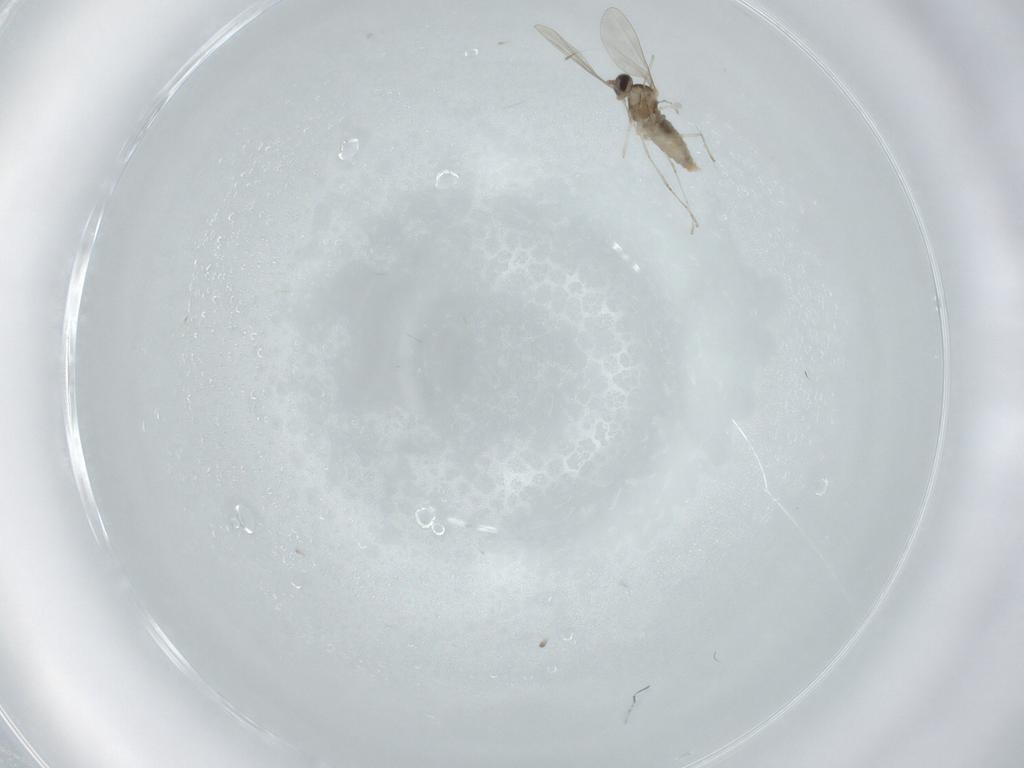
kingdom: Animalia
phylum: Arthropoda
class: Insecta
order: Diptera
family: Cecidomyiidae
